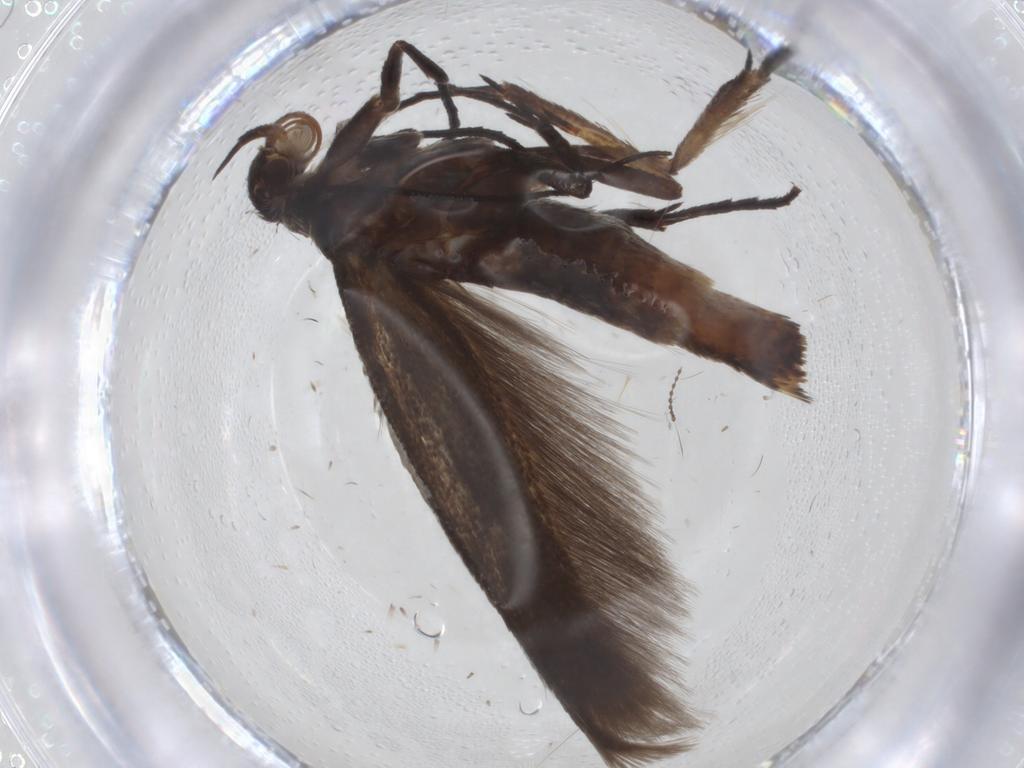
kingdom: Animalia
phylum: Arthropoda
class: Insecta
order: Lepidoptera
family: Scythrididae
